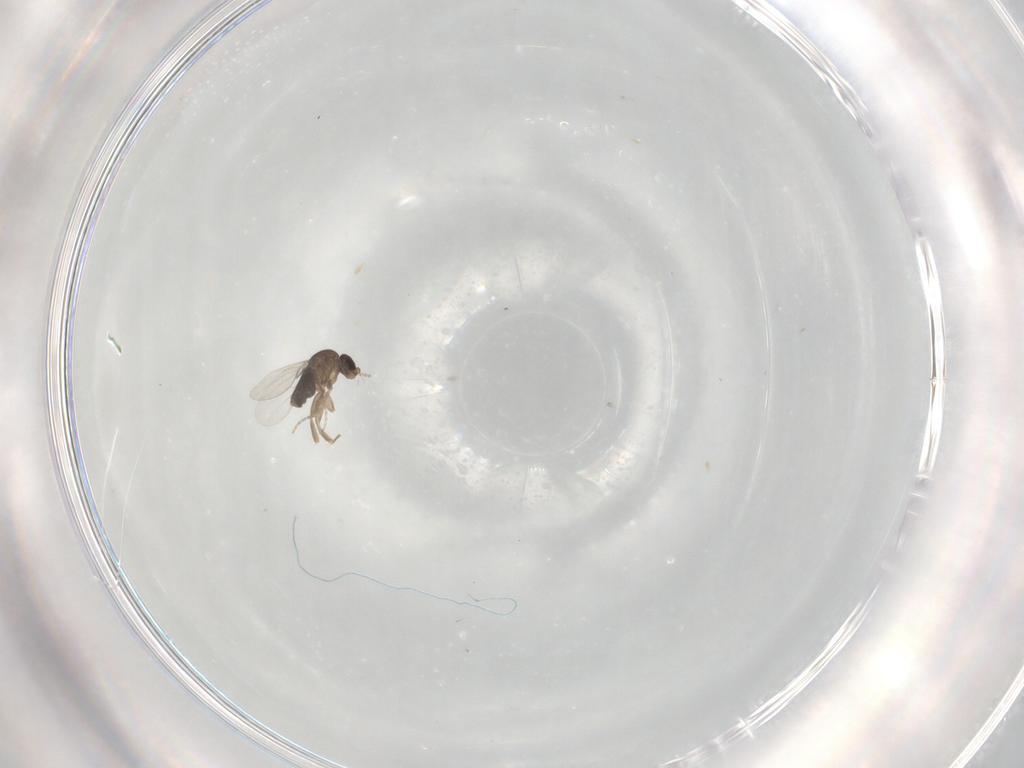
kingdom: Animalia
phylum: Arthropoda
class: Insecta
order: Diptera
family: Phoridae
